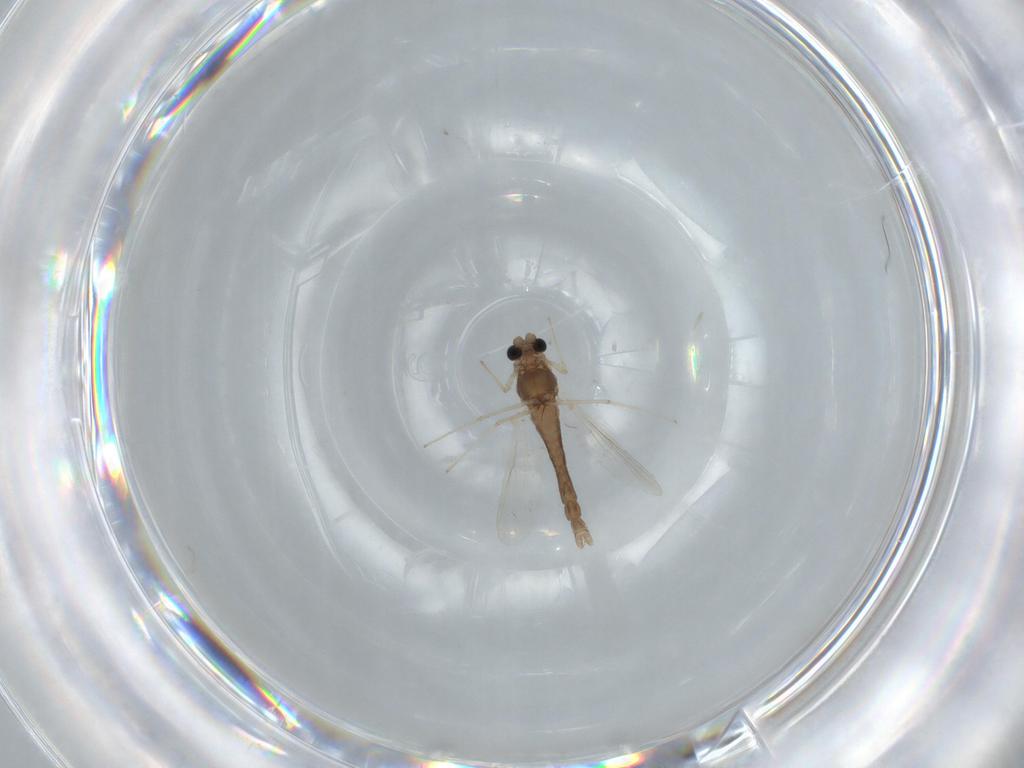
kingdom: Animalia
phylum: Arthropoda
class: Insecta
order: Diptera
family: Chironomidae
